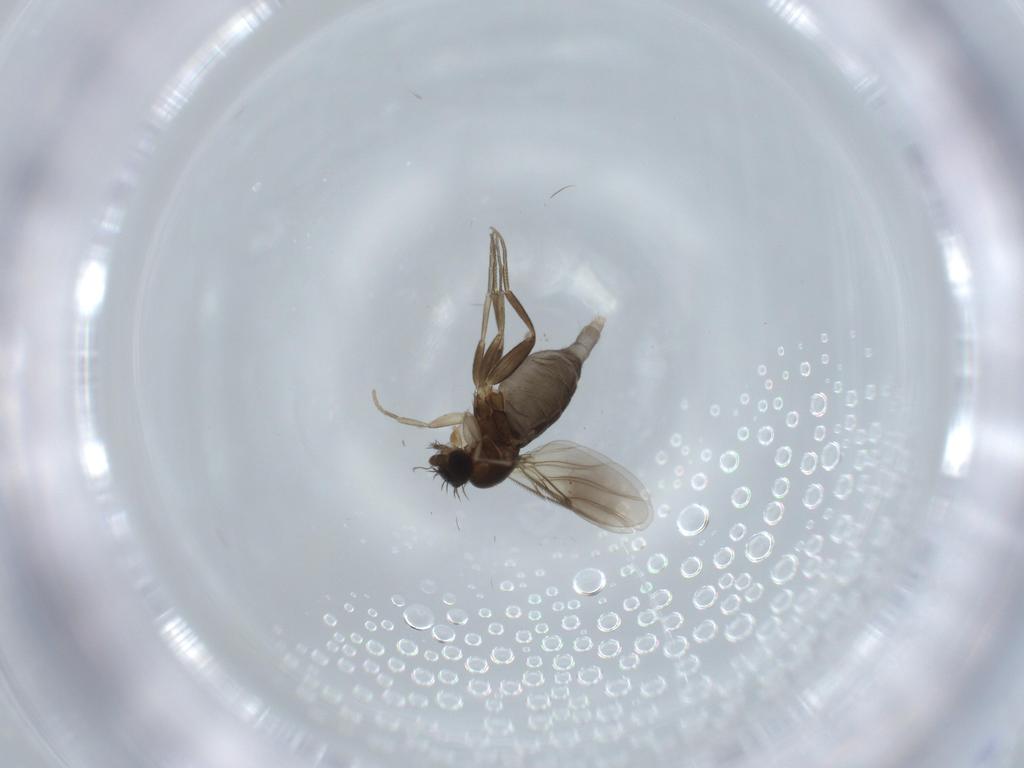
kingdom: Animalia
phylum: Arthropoda
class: Insecta
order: Diptera
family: Phoridae
